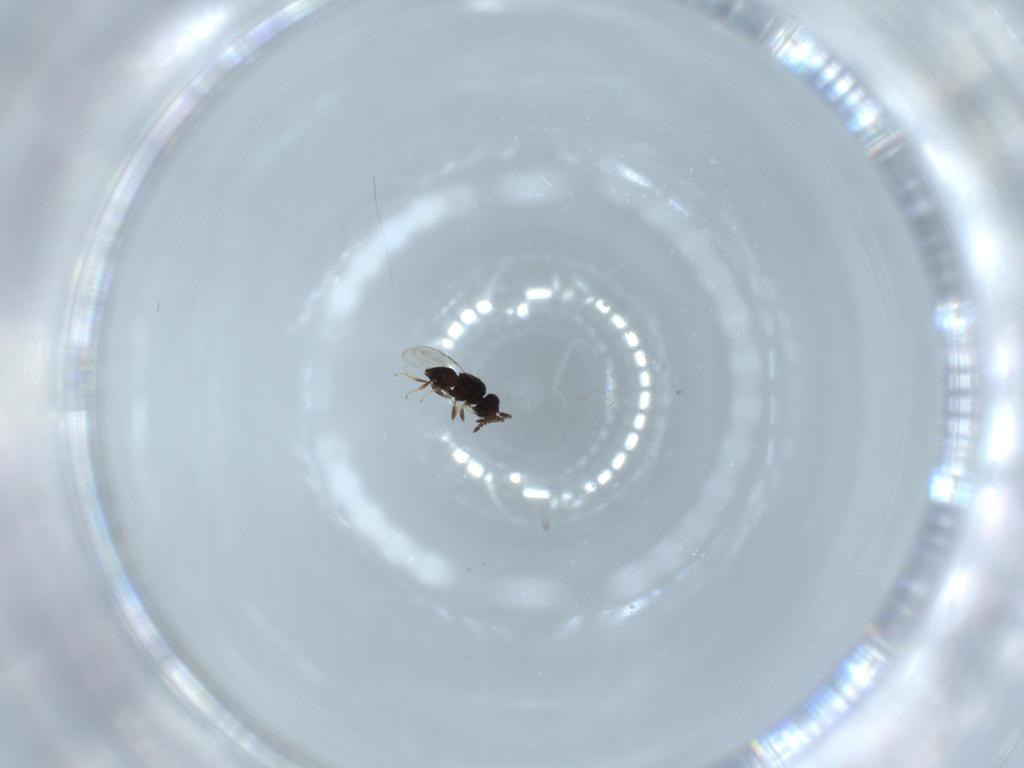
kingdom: Animalia
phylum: Arthropoda
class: Insecta
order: Hymenoptera
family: Ceraphronidae
